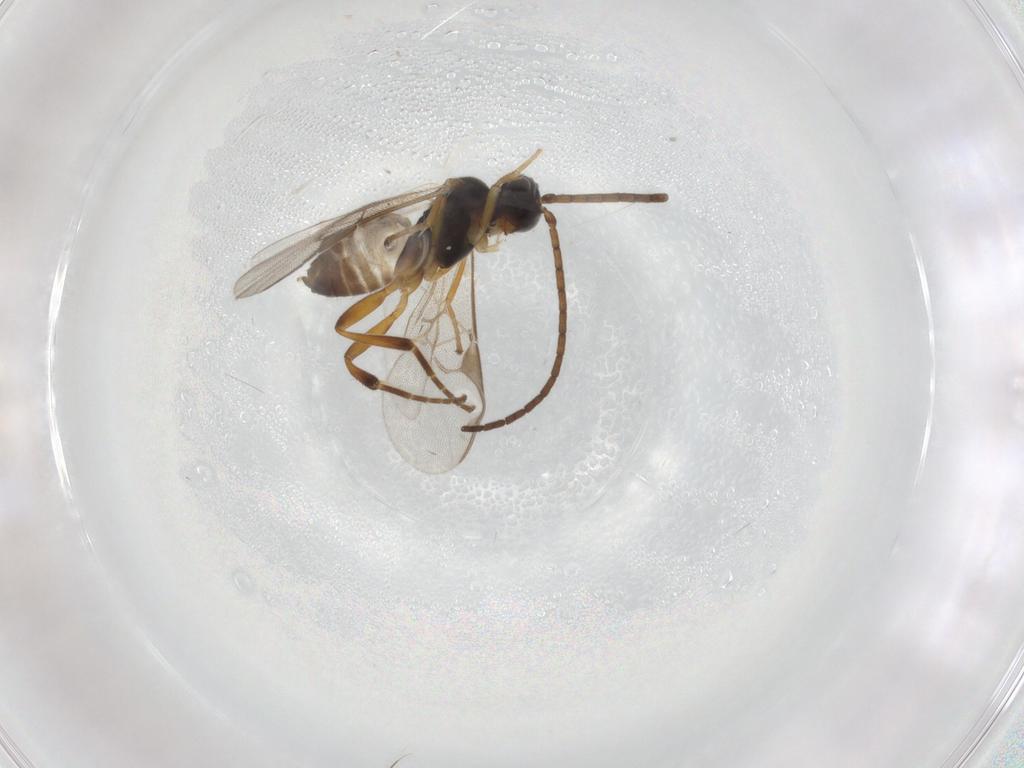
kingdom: Animalia
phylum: Arthropoda
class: Insecta
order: Hymenoptera
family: Braconidae
